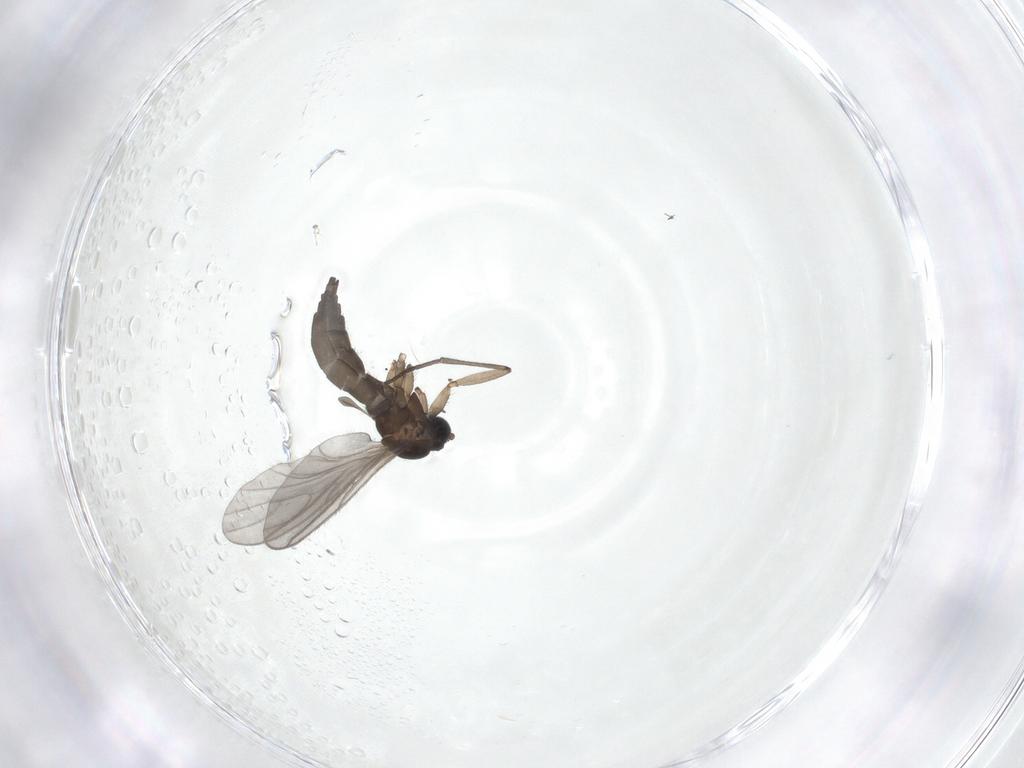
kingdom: Animalia
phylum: Arthropoda
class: Insecta
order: Diptera
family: Sciaridae
